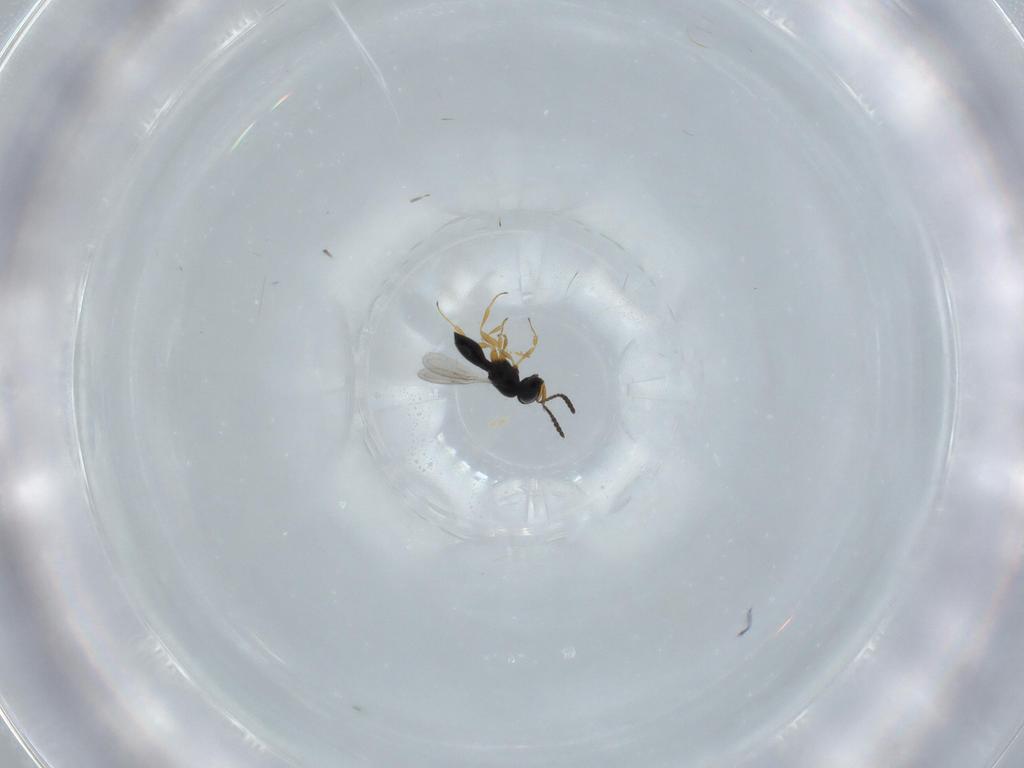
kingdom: Animalia
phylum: Arthropoda
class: Insecta
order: Hymenoptera
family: Scelionidae
